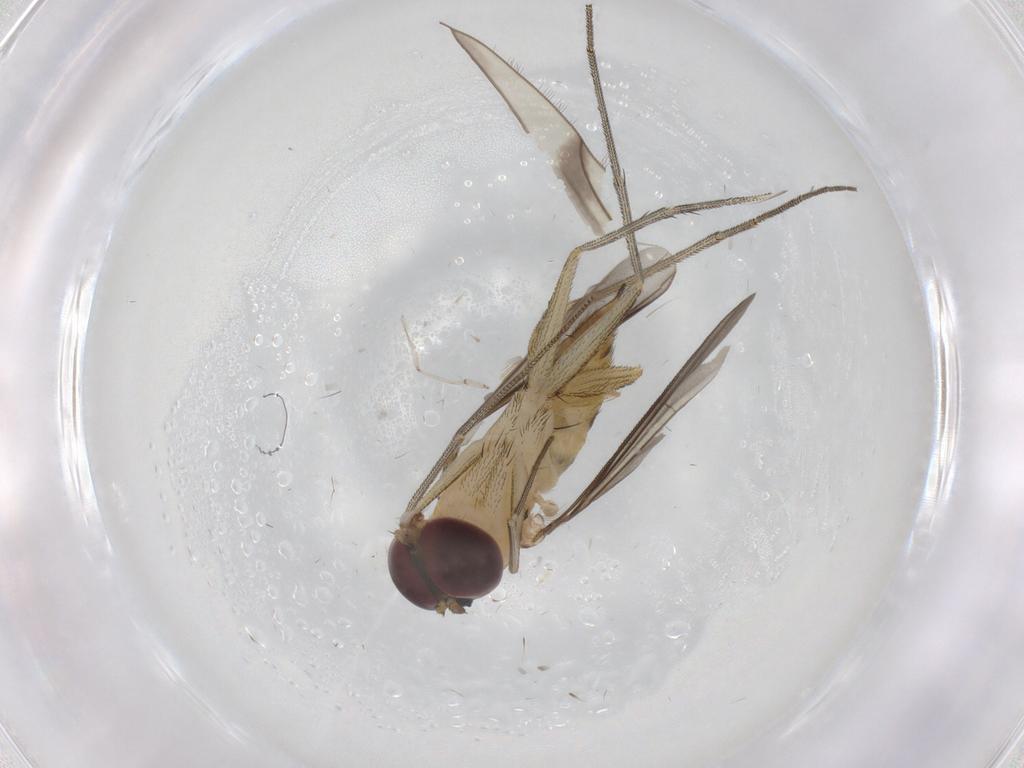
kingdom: Animalia
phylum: Arthropoda
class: Insecta
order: Diptera
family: Dolichopodidae
